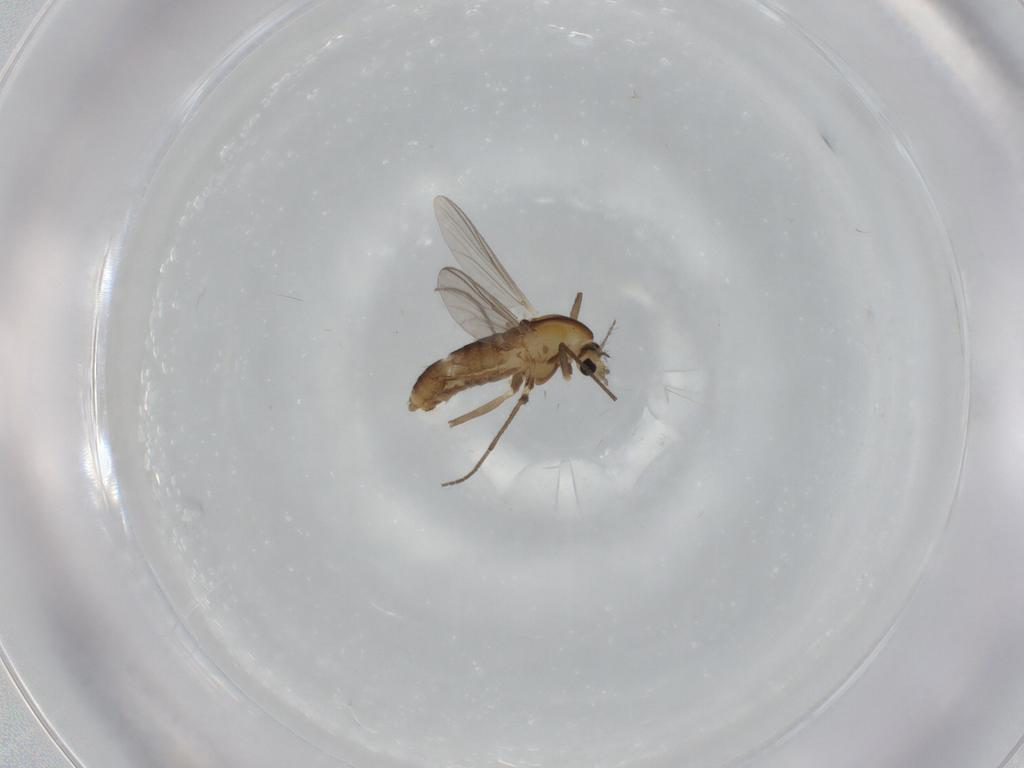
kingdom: Animalia
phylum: Arthropoda
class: Insecta
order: Diptera
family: Chironomidae
